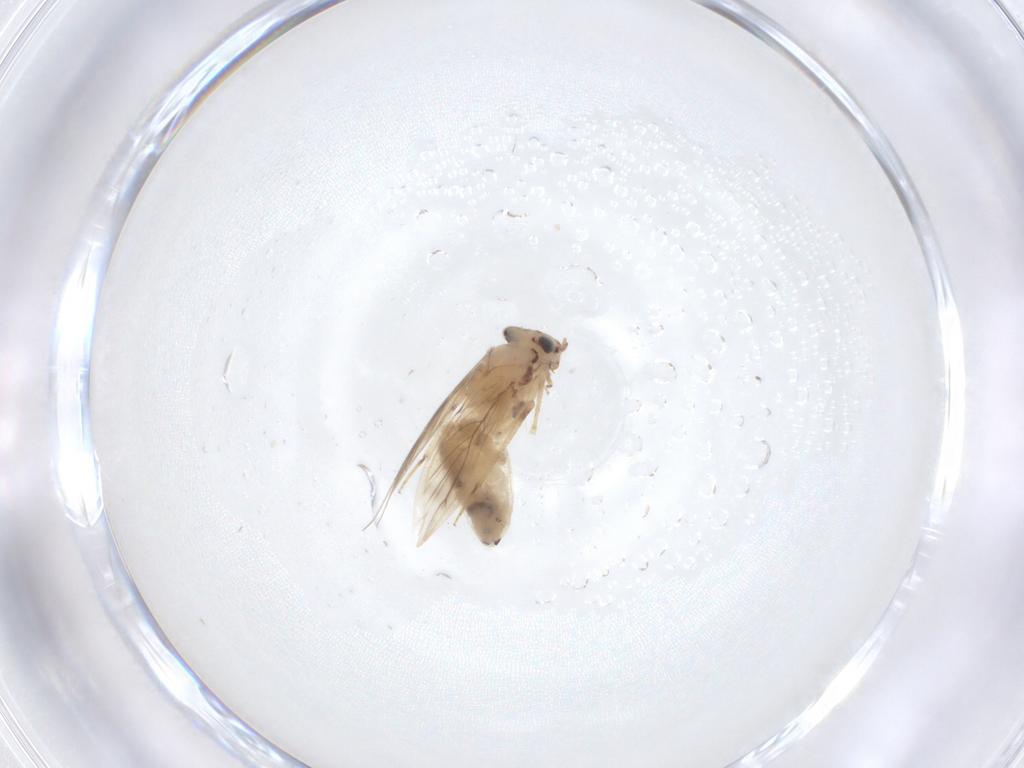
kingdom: Animalia
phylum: Arthropoda
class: Insecta
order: Psocodea
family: Lepidopsocidae
